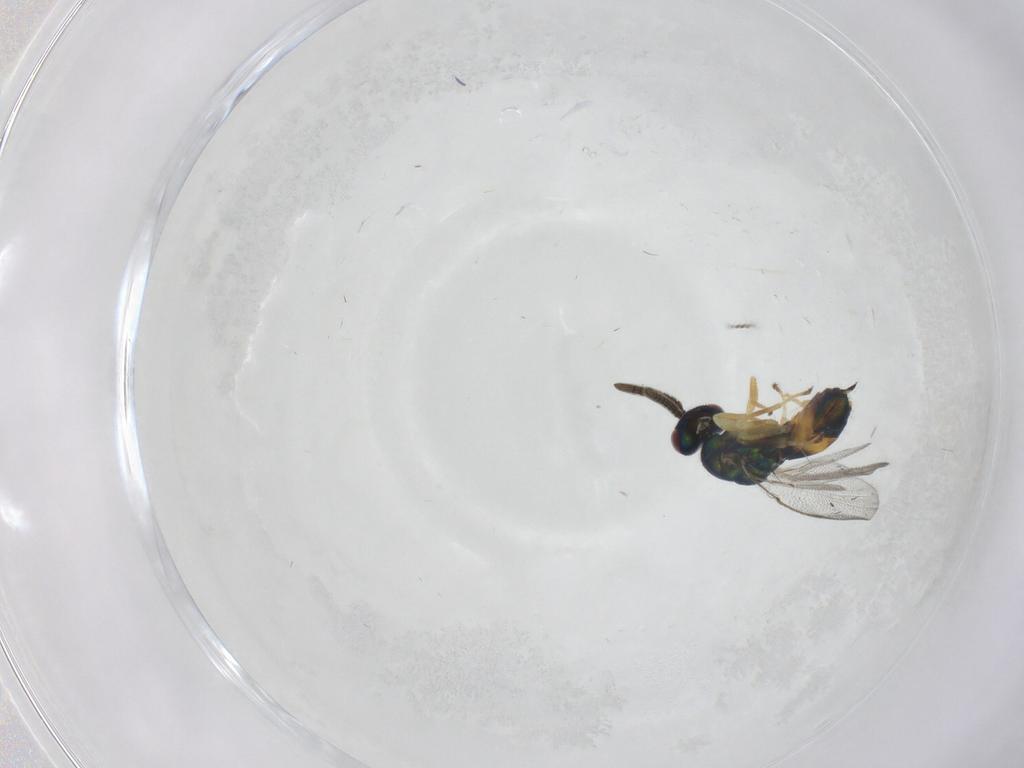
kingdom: Animalia
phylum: Arthropoda
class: Insecta
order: Hymenoptera
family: Torymidae
